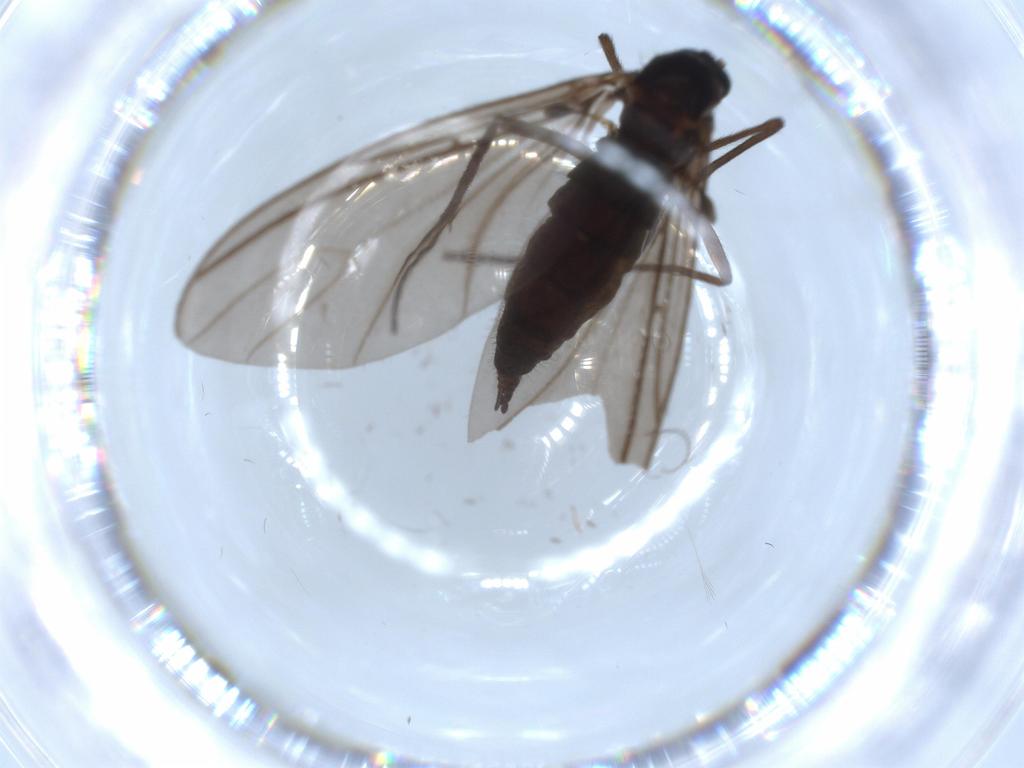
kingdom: Animalia
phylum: Arthropoda
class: Insecta
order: Diptera
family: Sciaridae
